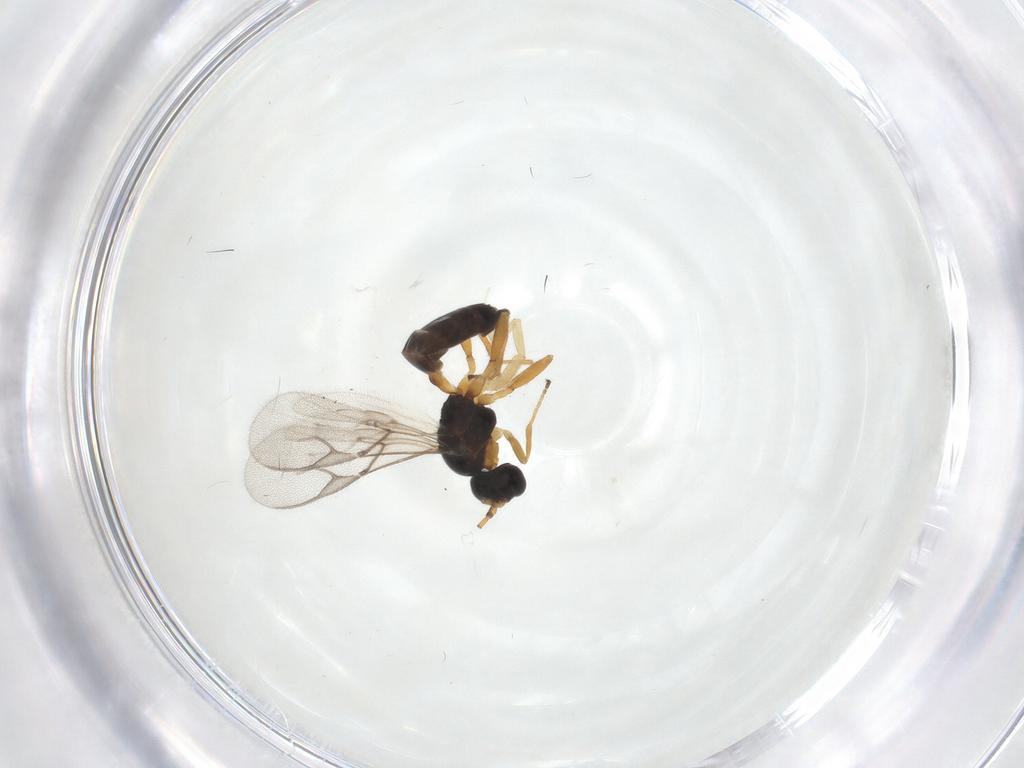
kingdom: Animalia
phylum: Arthropoda
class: Insecta
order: Hymenoptera
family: Braconidae
